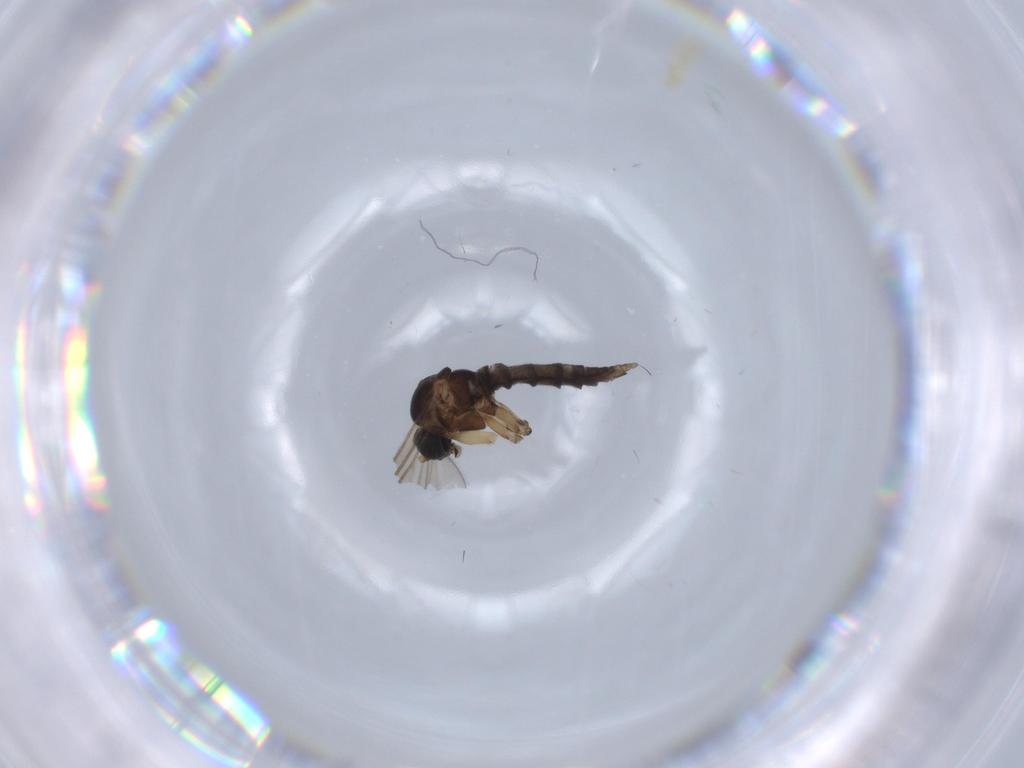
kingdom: Animalia
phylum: Arthropoda
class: Insecta
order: Diptera
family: Sciaridae
